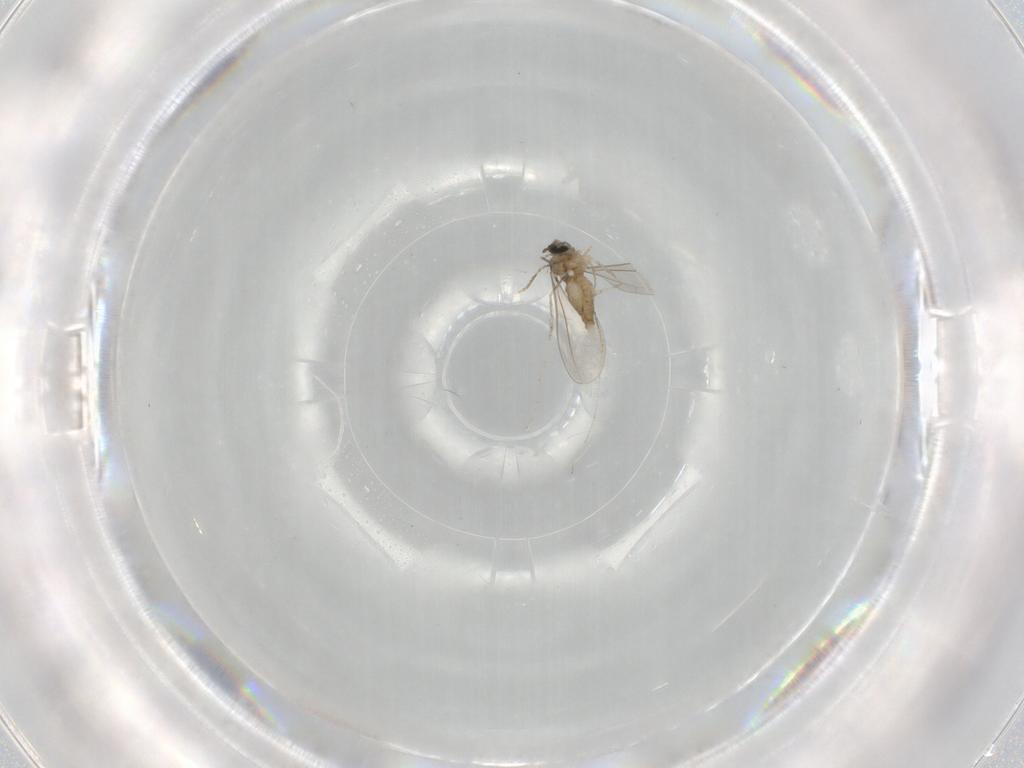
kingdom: Animalia
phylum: Arthropoda
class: Insecta
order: Diptera
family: Cecidomyiidae
